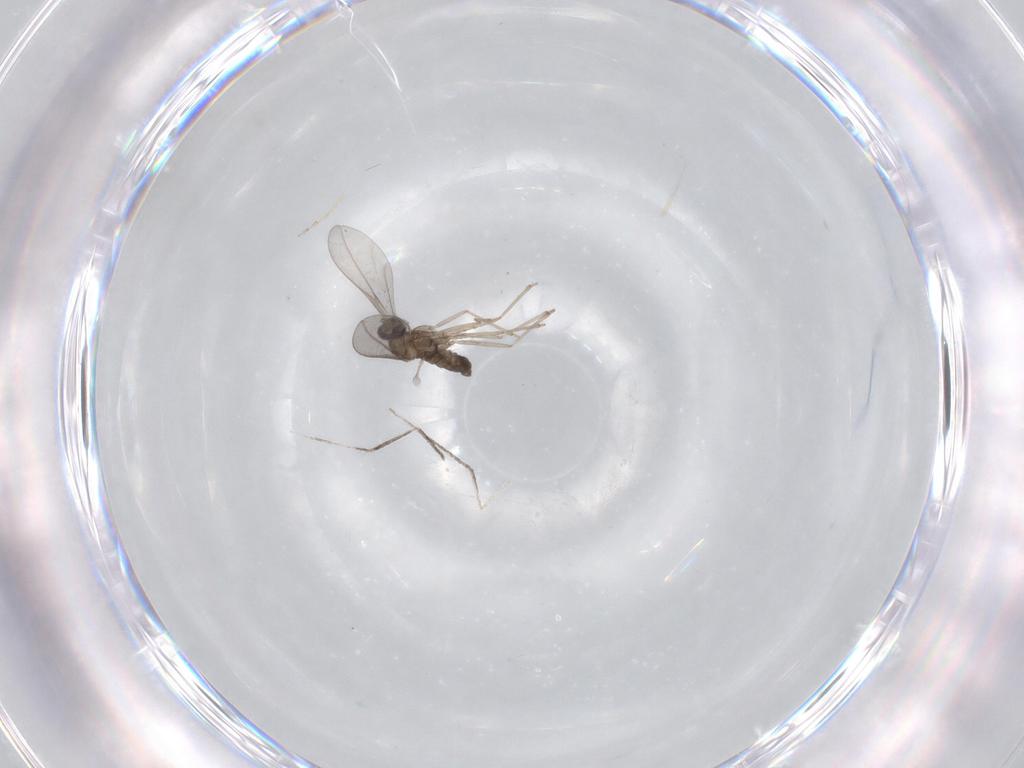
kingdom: Animalia
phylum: Arthropoda
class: Insecta
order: Diptera
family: Cecidomyiidae
